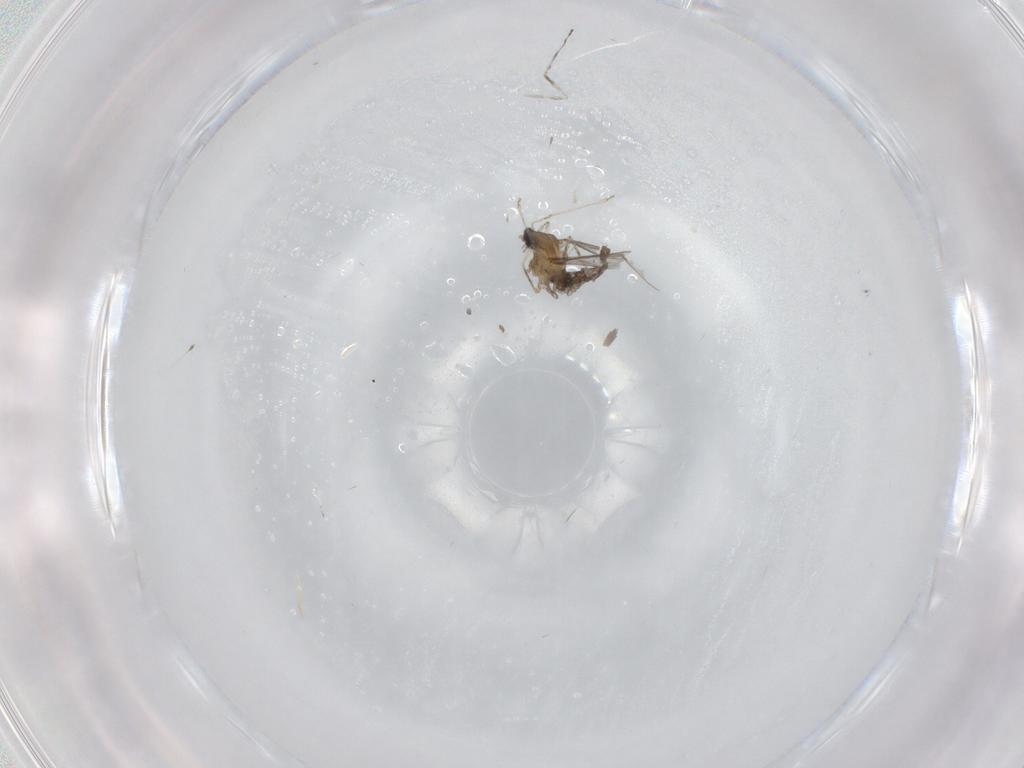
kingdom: Animalia
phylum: Arthropoda
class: Insecta
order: Diptera
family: Cecidomyiidae
